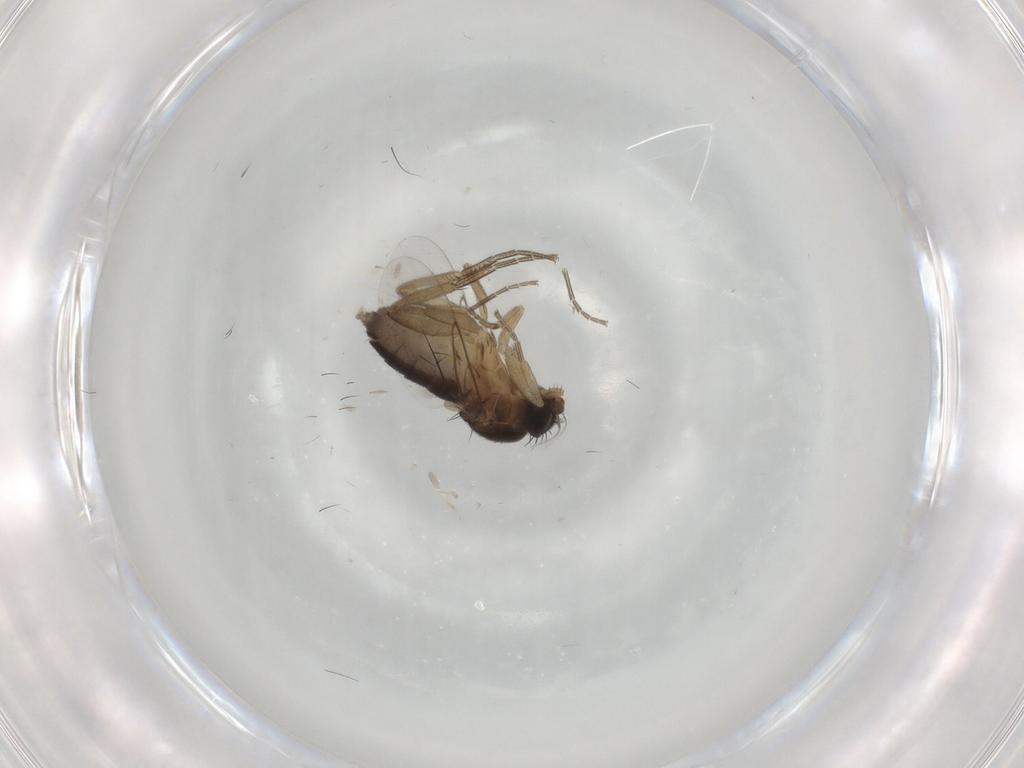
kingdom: Animalia
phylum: Arthropoda
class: Insecta
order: Diptera
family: Phoridae
